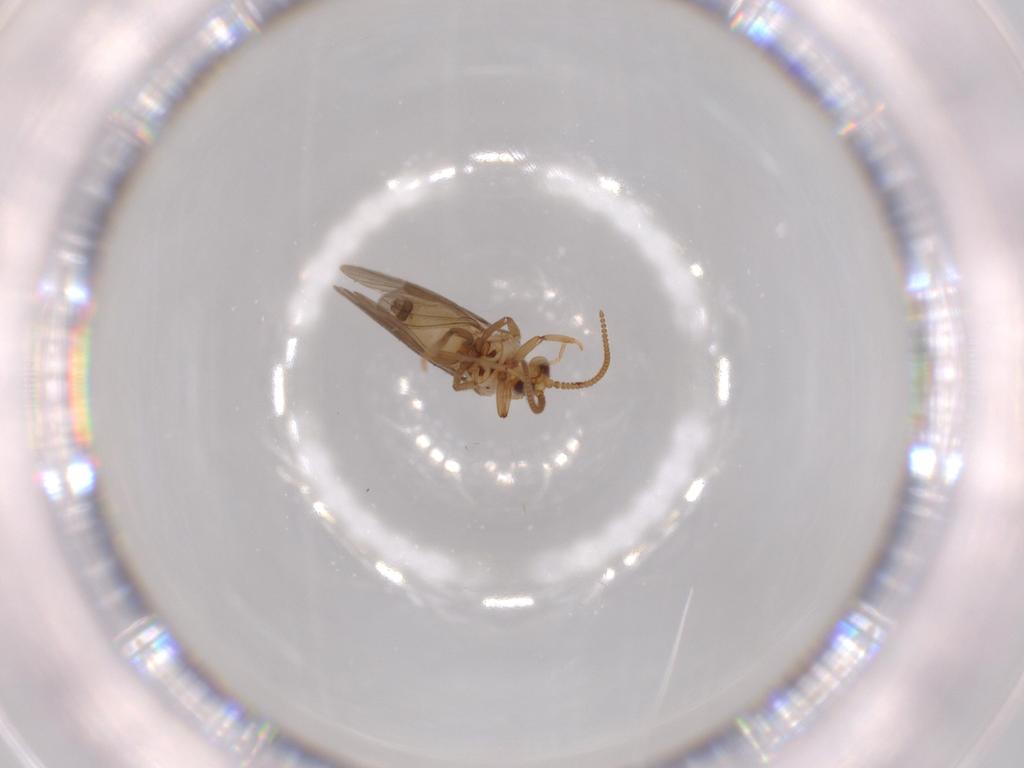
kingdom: Animalia
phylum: Arthropoda
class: Insecta
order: Neuroptera
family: Coniopterygidae
